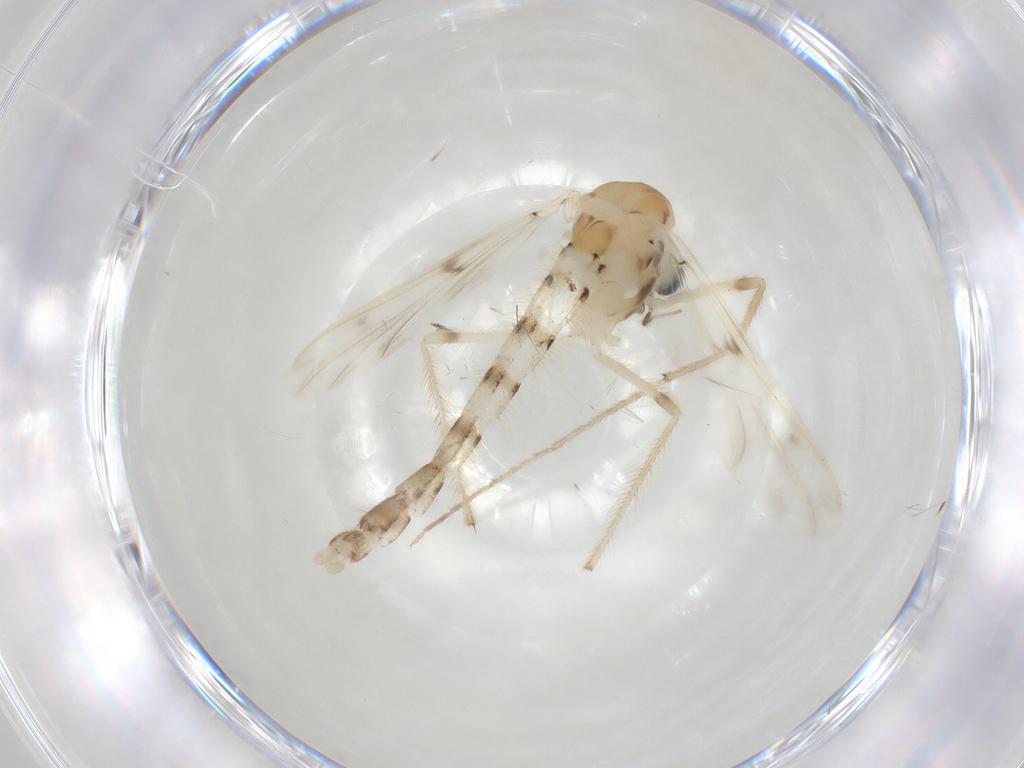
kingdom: Animalia
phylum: Arthropoda
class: Insecta
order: Diptera
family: Chironomidae
